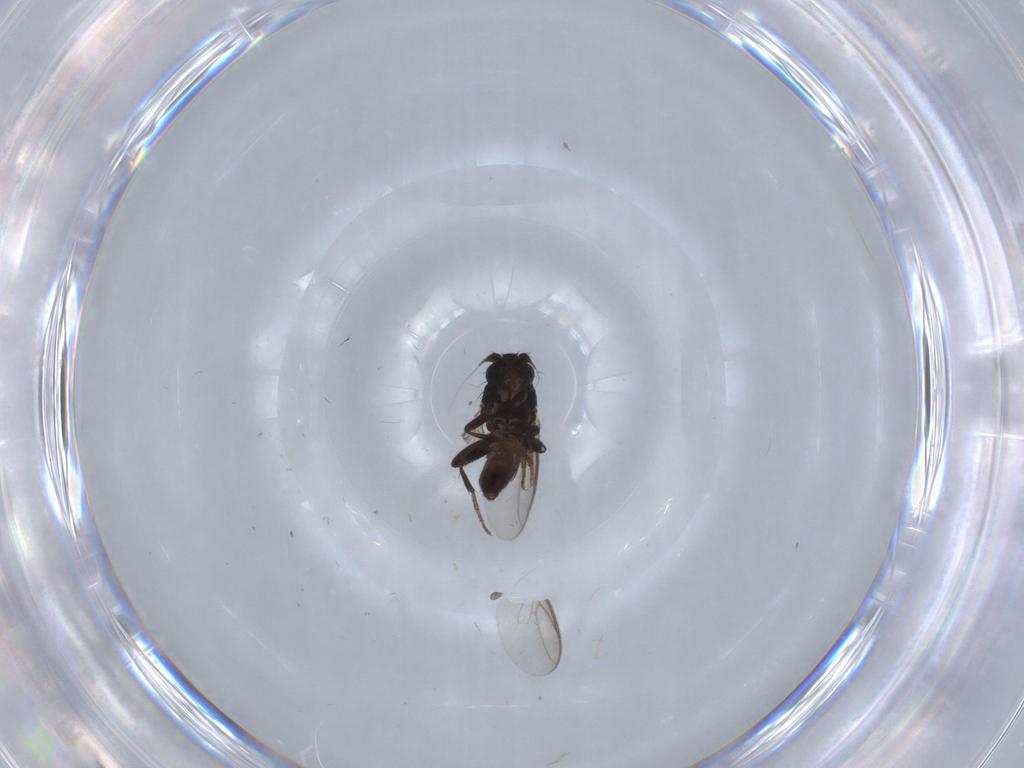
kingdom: Animalia
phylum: Arthropoda
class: Insecta
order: Diptera
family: Sphaeroceridae
